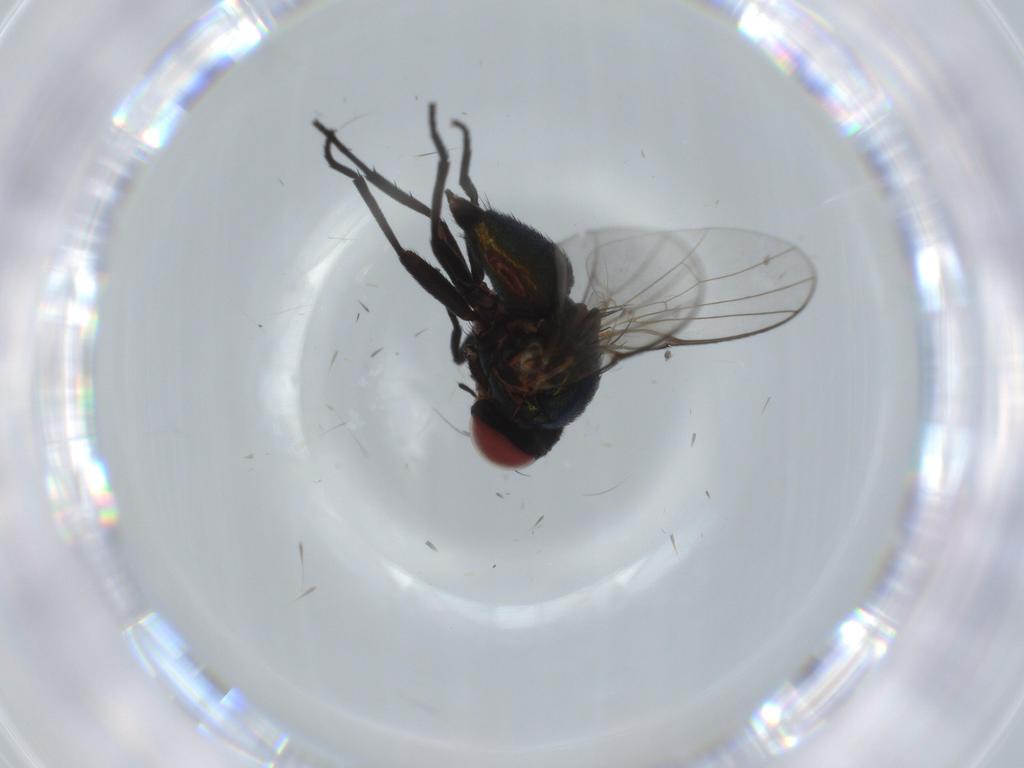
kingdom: Animalia
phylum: Arthropoda
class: Insecta
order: Diptera
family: Agromyzidae
